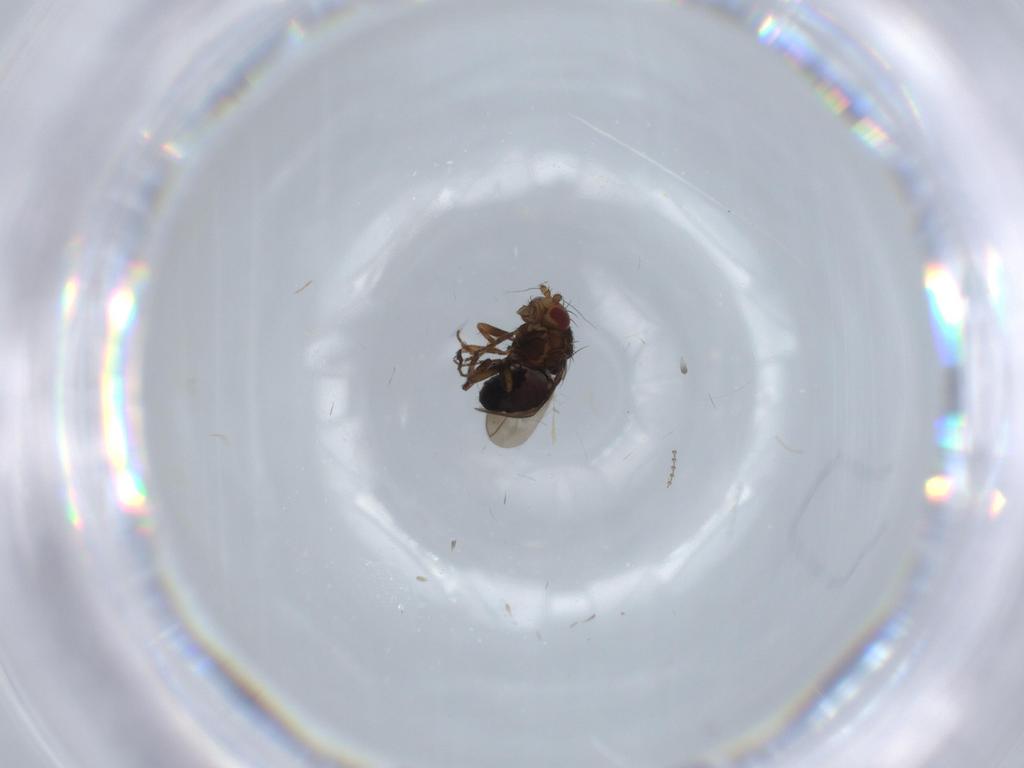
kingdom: Animalia
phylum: Arthropoda
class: Insecta
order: Diptera
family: Psychodidae
